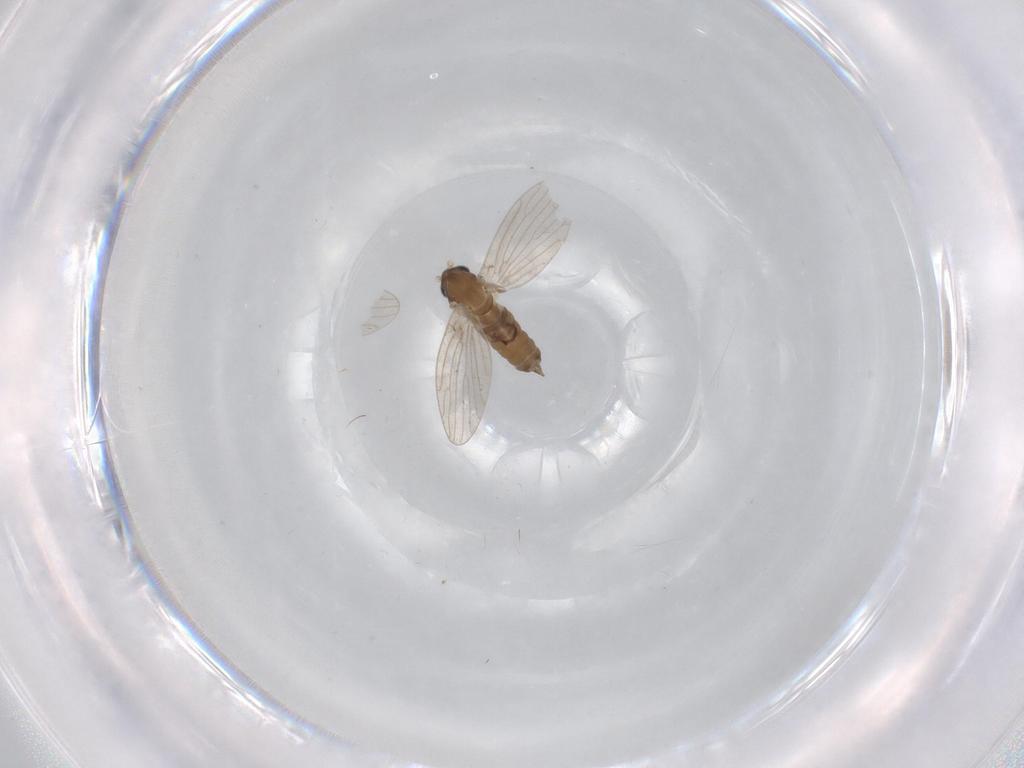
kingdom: Animalia
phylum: Arthropoda
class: Insecta
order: Diptera
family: Psychodidae
